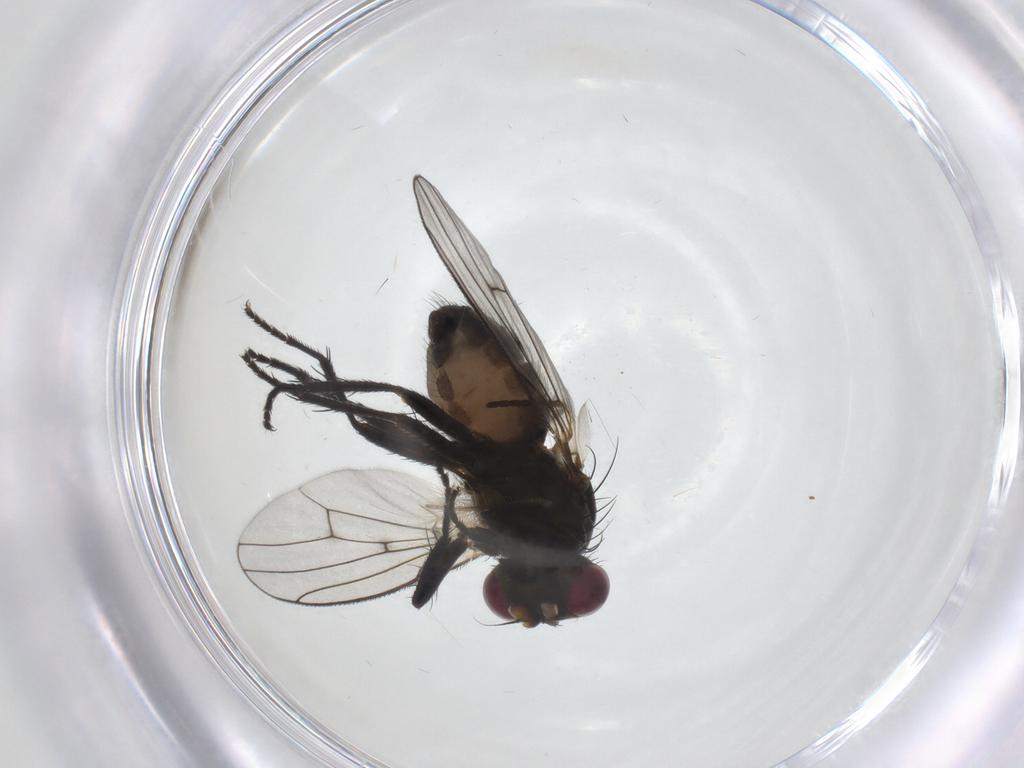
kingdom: Animalia
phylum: Arthropoda
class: Insecta
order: Diptera
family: Muscidae
